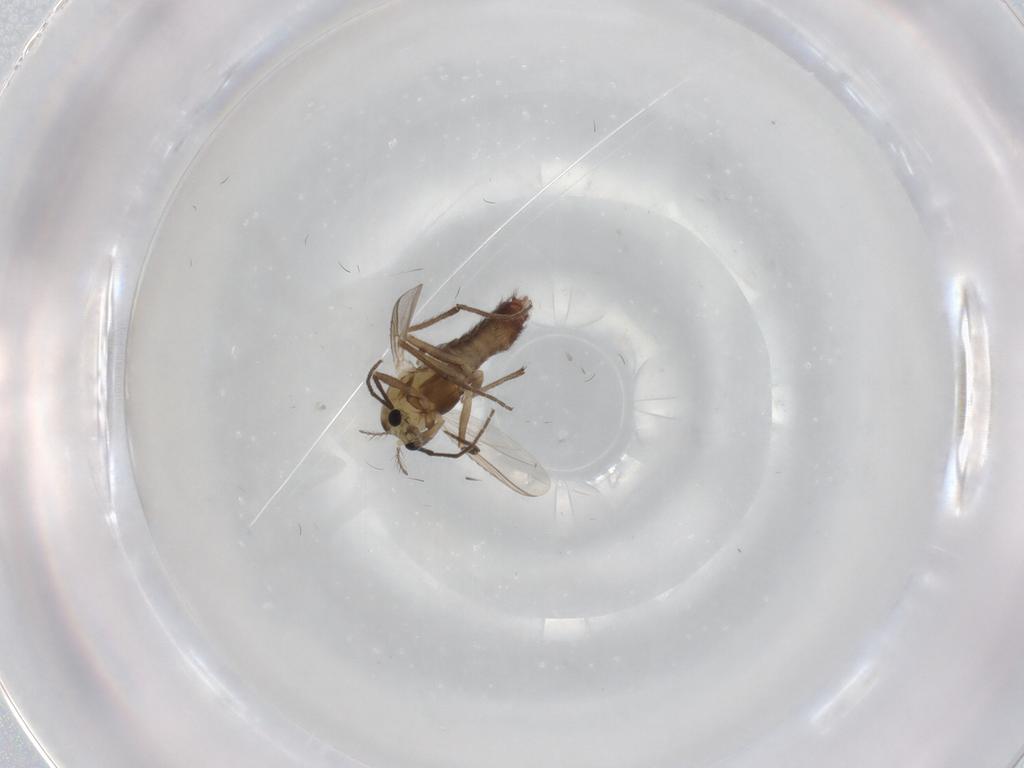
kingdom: Animalia
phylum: Arthropoda
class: Insecta
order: Diptera
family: Chironomidae
